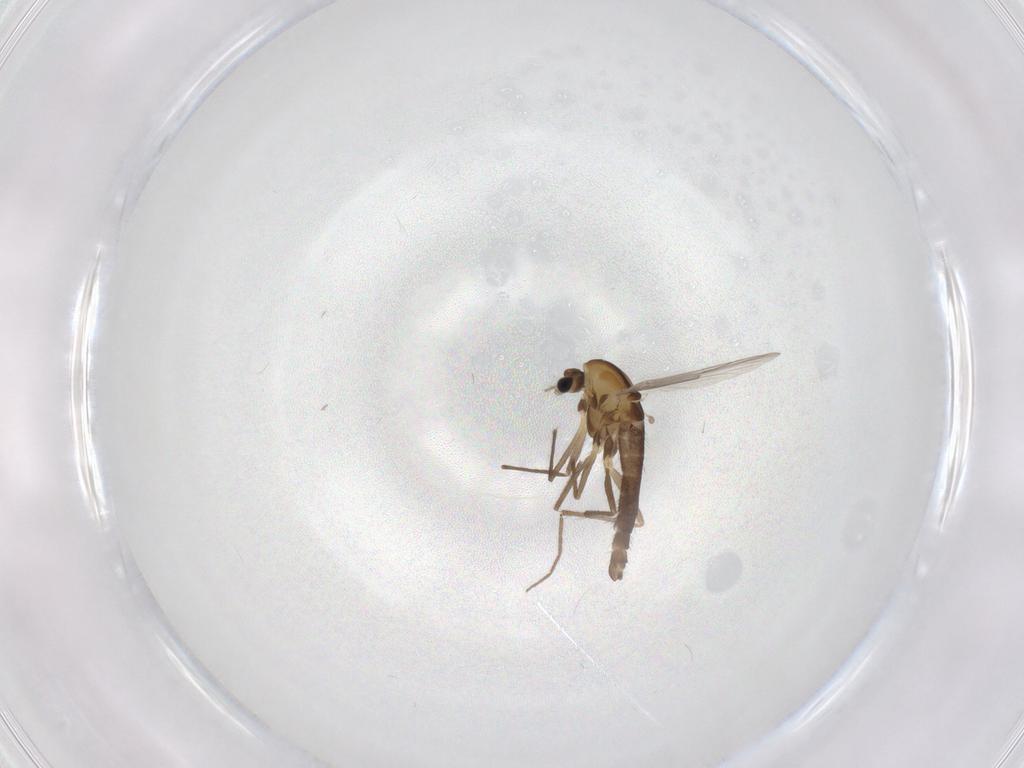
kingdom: Animalia
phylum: Arthropoda
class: Insecta
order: Diptera
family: Chironomidae
